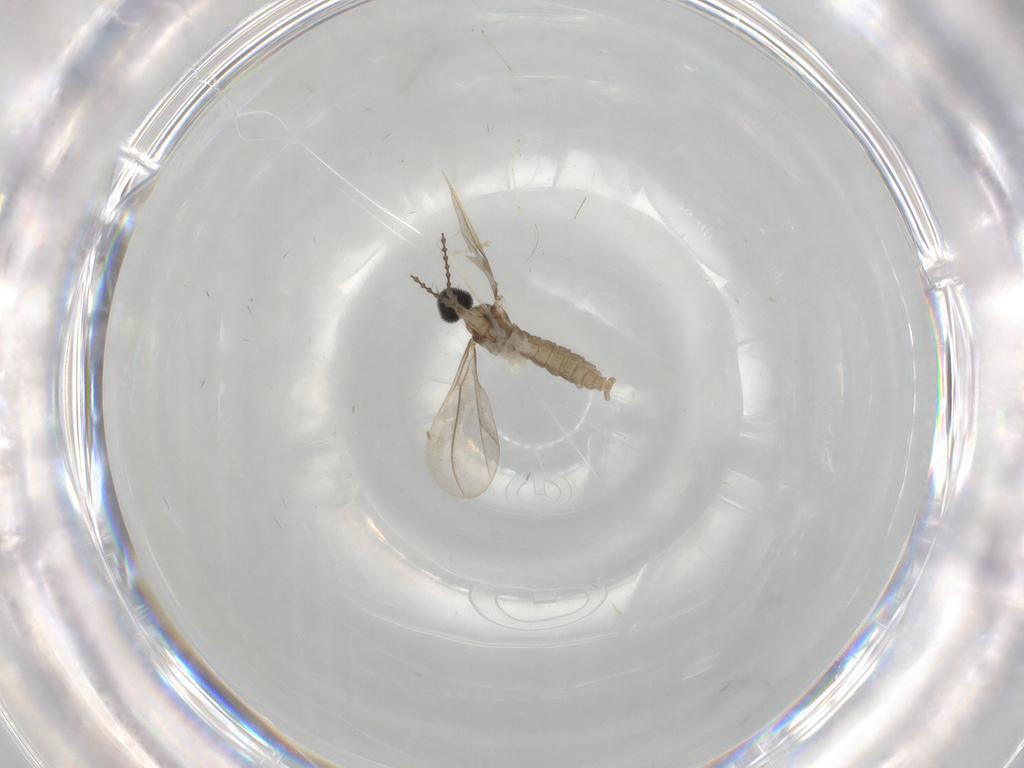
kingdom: Animalia
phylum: Arthropoda
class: Insecta
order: Diptera
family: Cecidomyiidae
